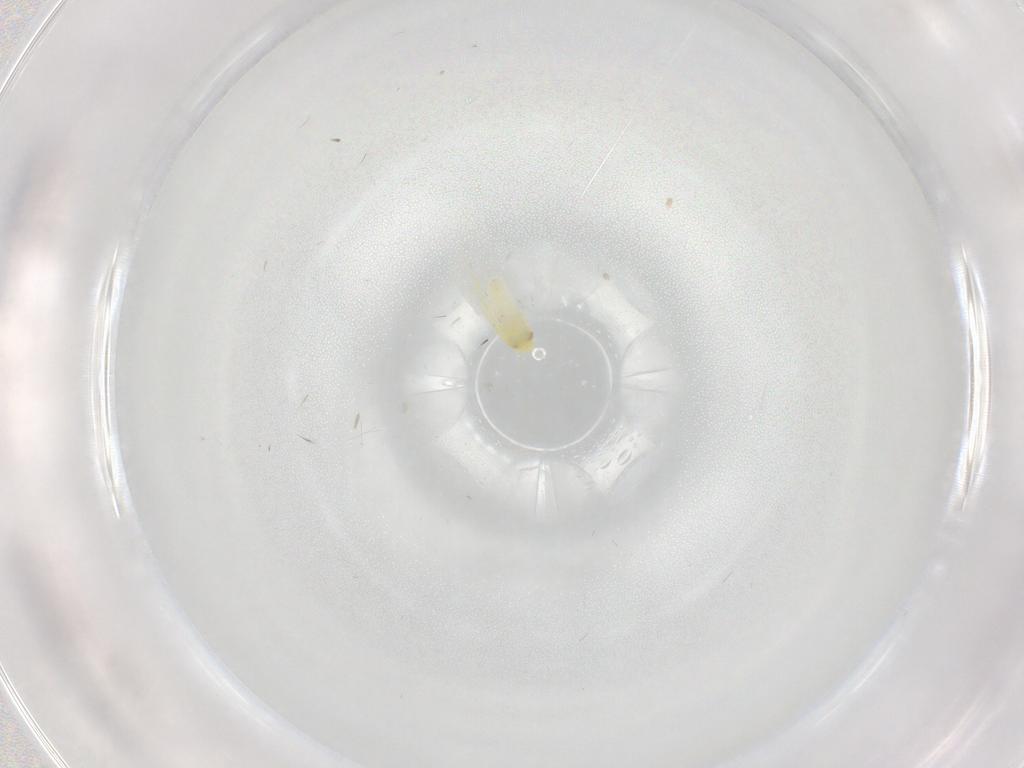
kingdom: Animalia
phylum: Arthropoda
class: Insecta
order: Hemiptera
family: Aleyrodidae
